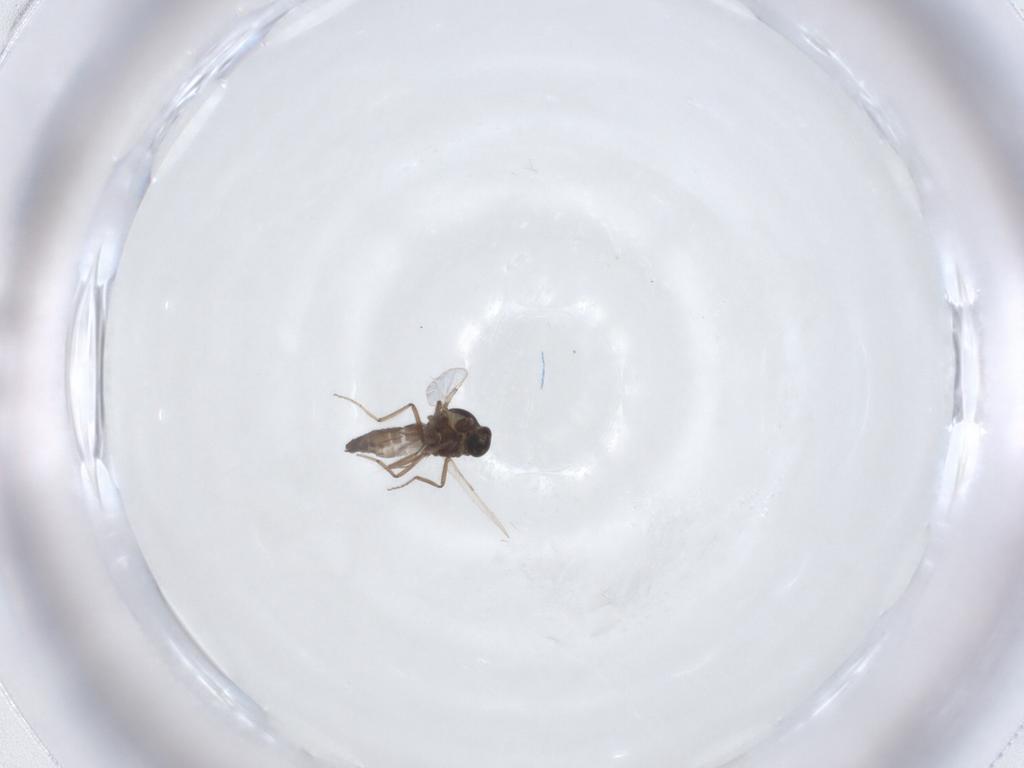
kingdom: Animalia
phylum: Arthropoda
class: Insecta
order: Diptera
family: Ceratopogonidae
